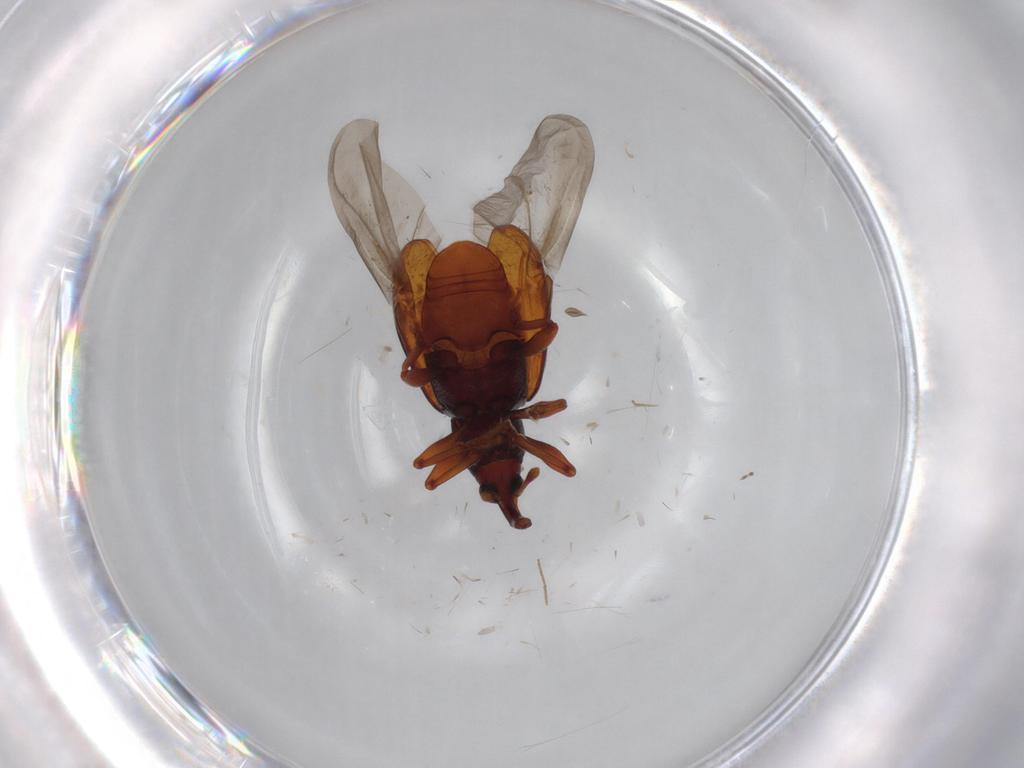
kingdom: Animalia
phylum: Arthropoda
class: Insecta
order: Coleoptera
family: Curculionidae
